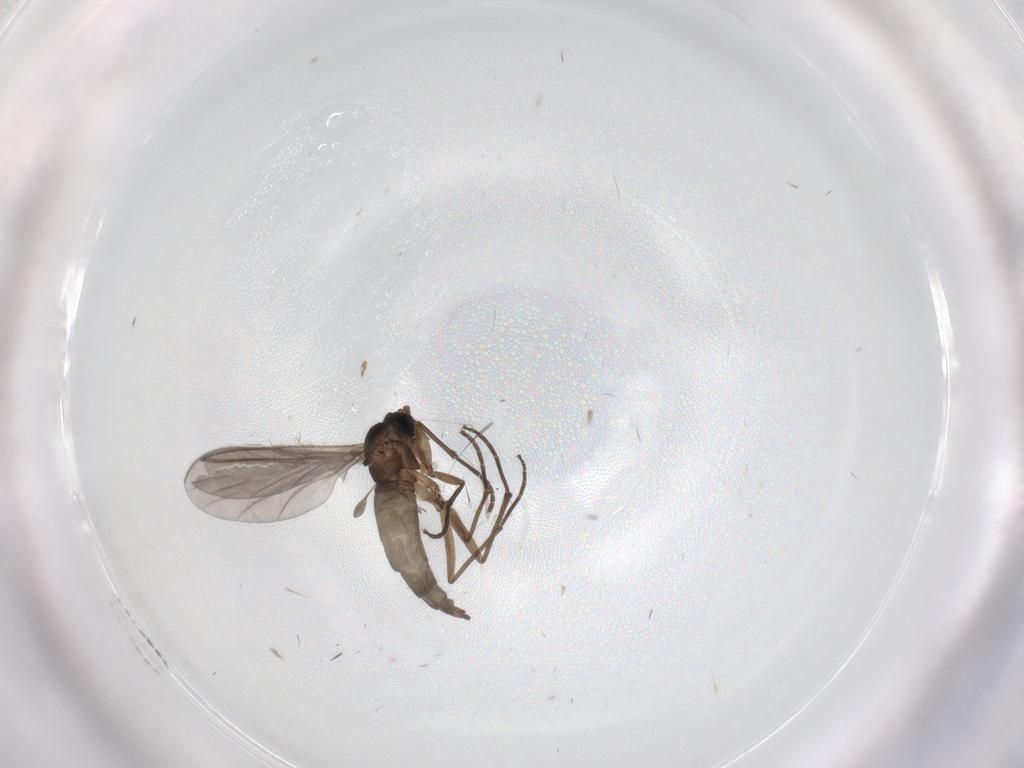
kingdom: Animalia
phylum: Arthropoda
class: Insecta
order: Diptera
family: Sciaridae
